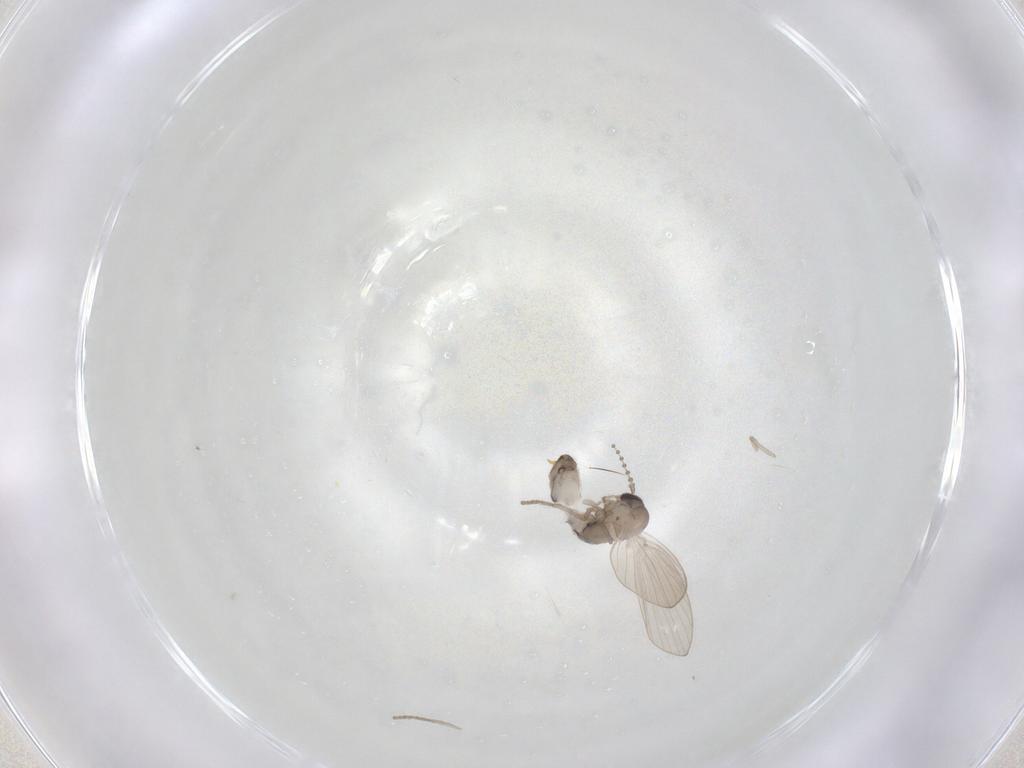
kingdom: Animalia
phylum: Arthropoda
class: Insecta
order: Diptera
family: Psychodidae
